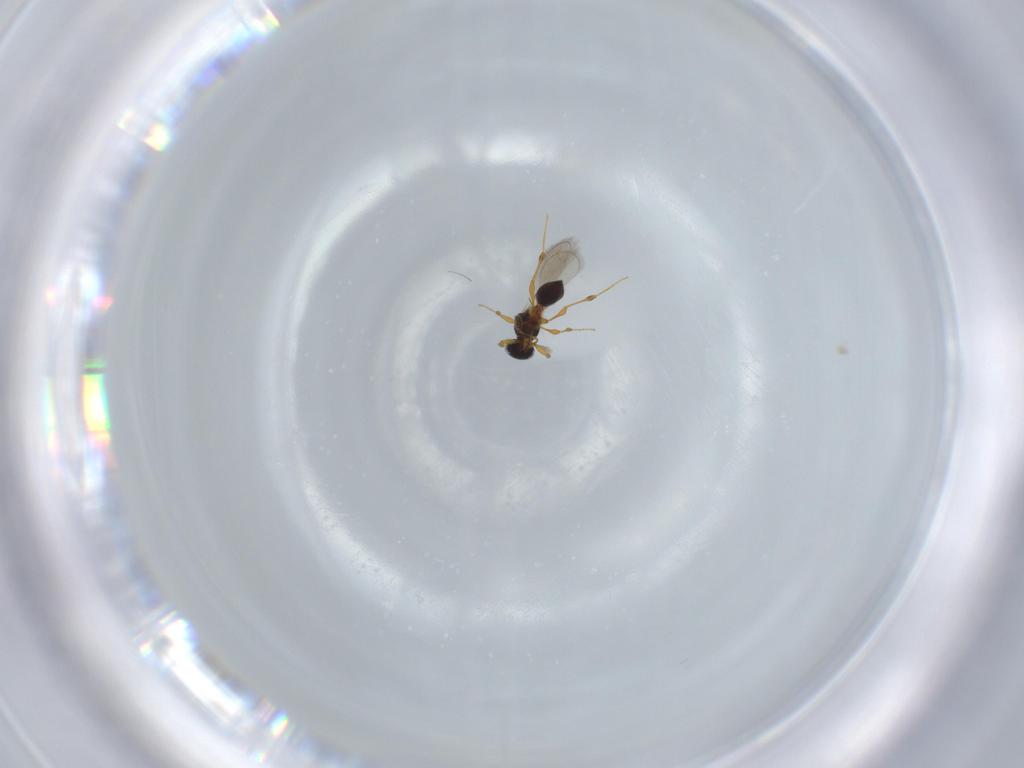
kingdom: Animalia
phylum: Arthropoda
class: Insecta
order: Hymenoptera
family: Platygastridae
